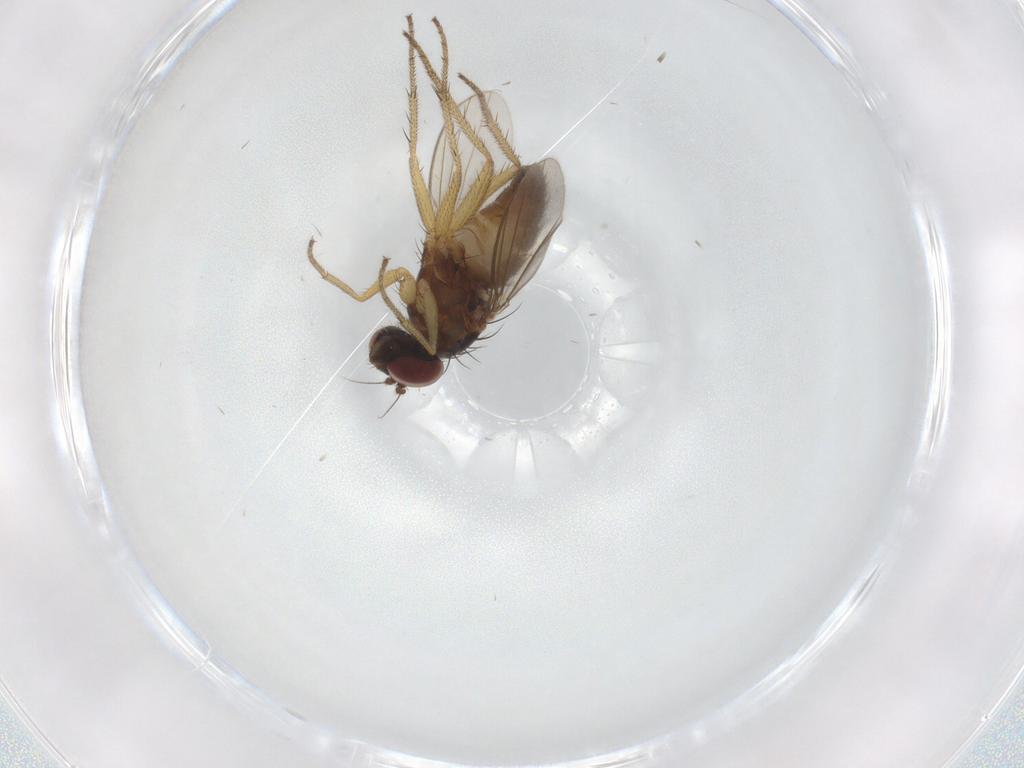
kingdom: Animalia
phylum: Arthropoda
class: Insecta
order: Diptera
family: Dolichopodidae
